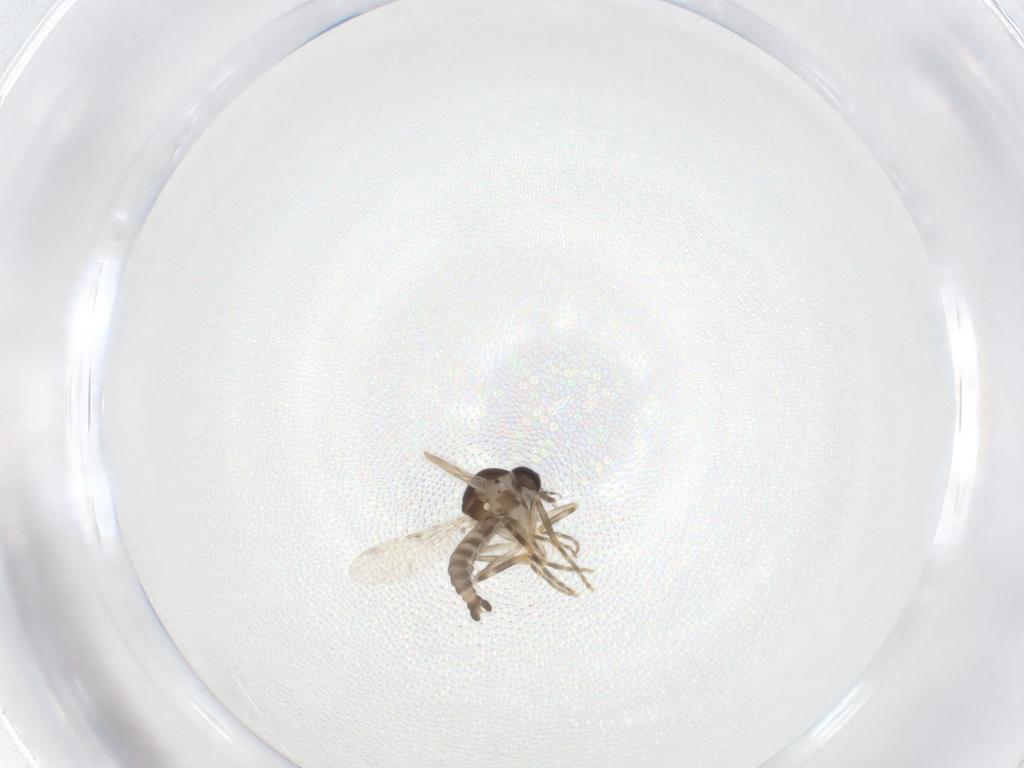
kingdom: Animalia
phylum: Arthropoda
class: Insecta
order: Diptera
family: Ceratopogonidae
